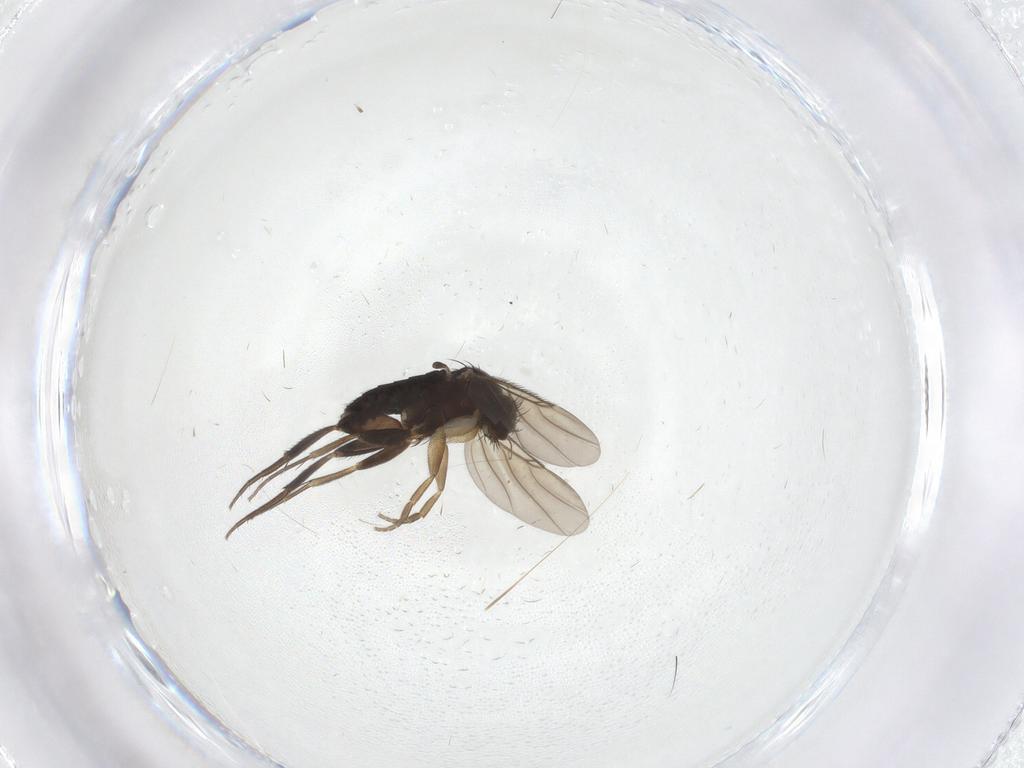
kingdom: Animalia
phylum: Arthropoda
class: Insecta
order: Diptera
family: Phoridae
